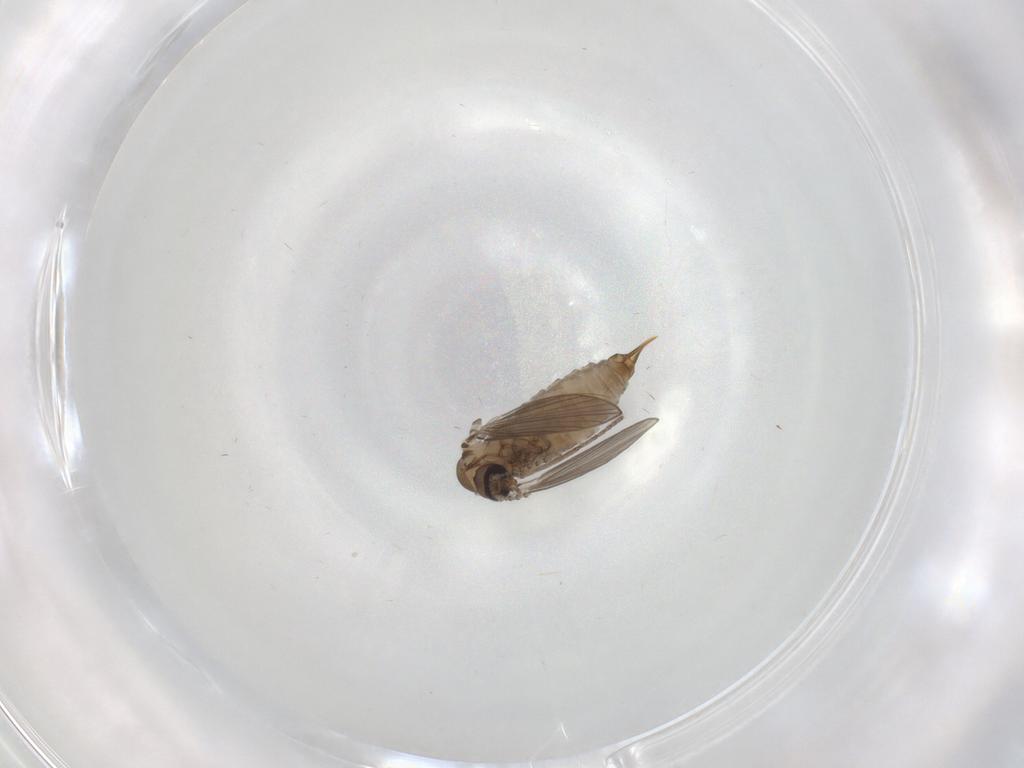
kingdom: Animalia
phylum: Arthropoda
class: Insecta
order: Diptera
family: Psychodidae
